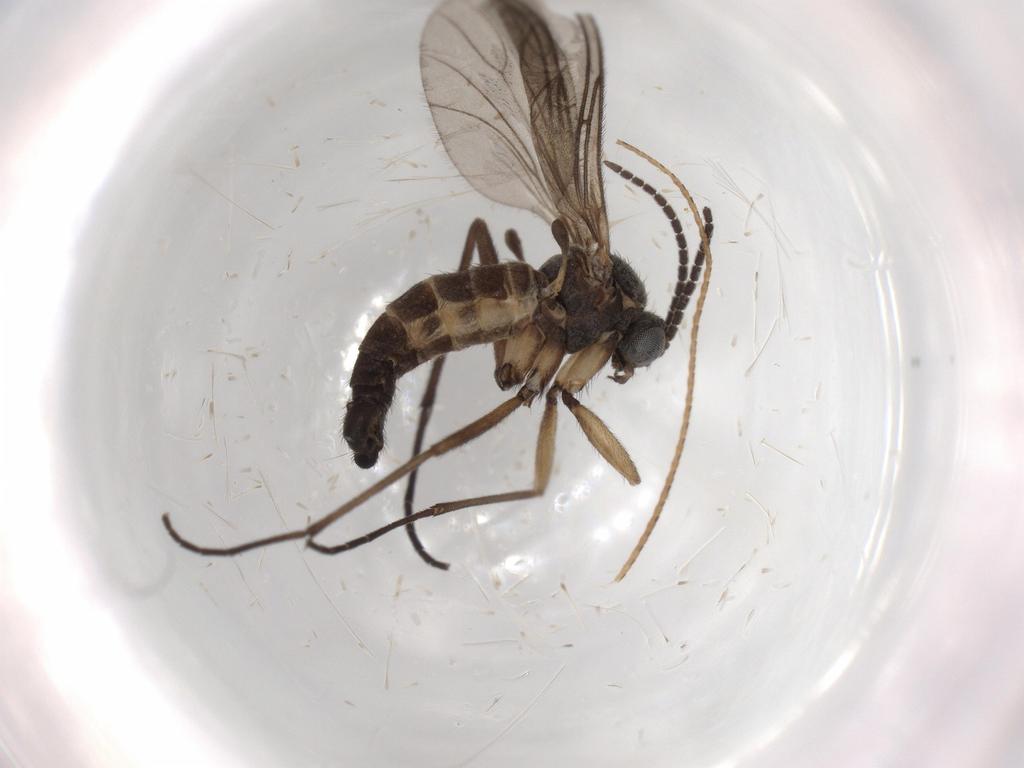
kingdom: Animalia
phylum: Arthropoda
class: Insecta
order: Diptera
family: Sciaridae
